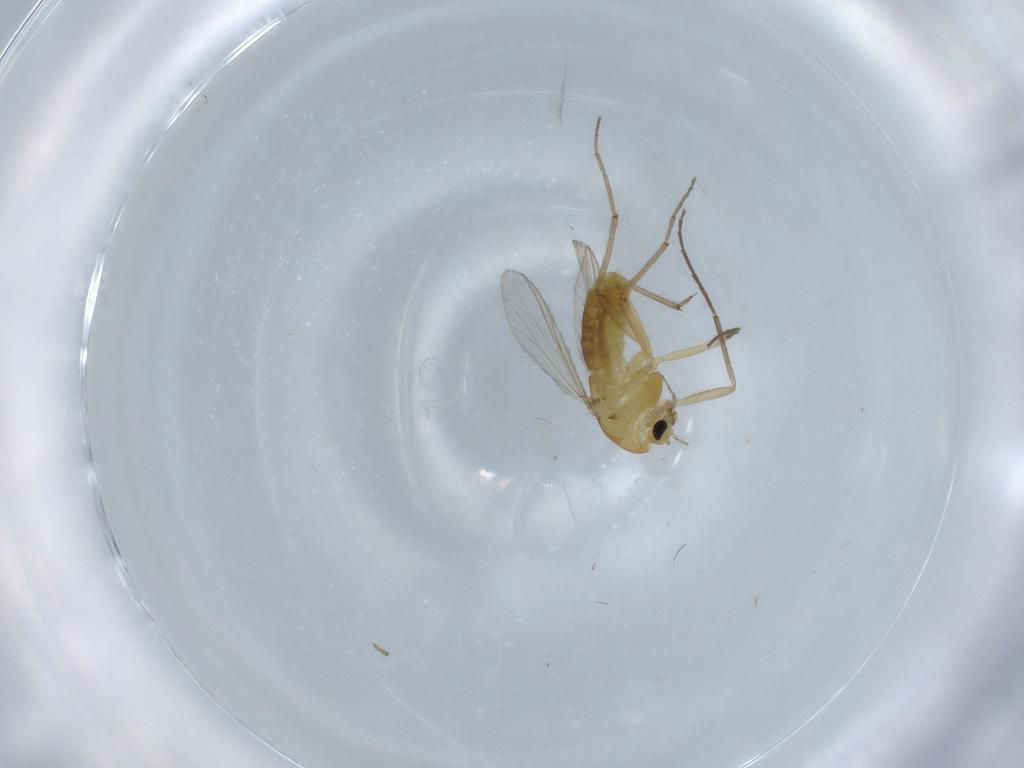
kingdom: Animalia
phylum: Arthropoda
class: Insecta
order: Diptera
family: Chironomidae
